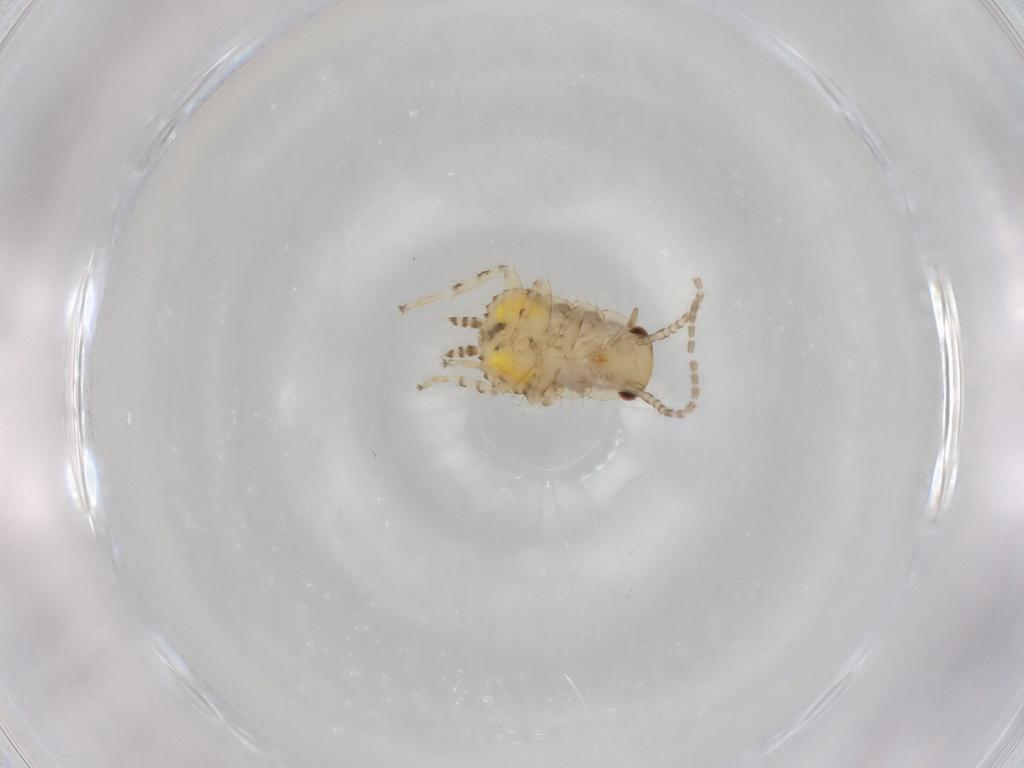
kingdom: Animalia
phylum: Arthropoda
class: Insecta
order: Blattodea
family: Ectobiidae
